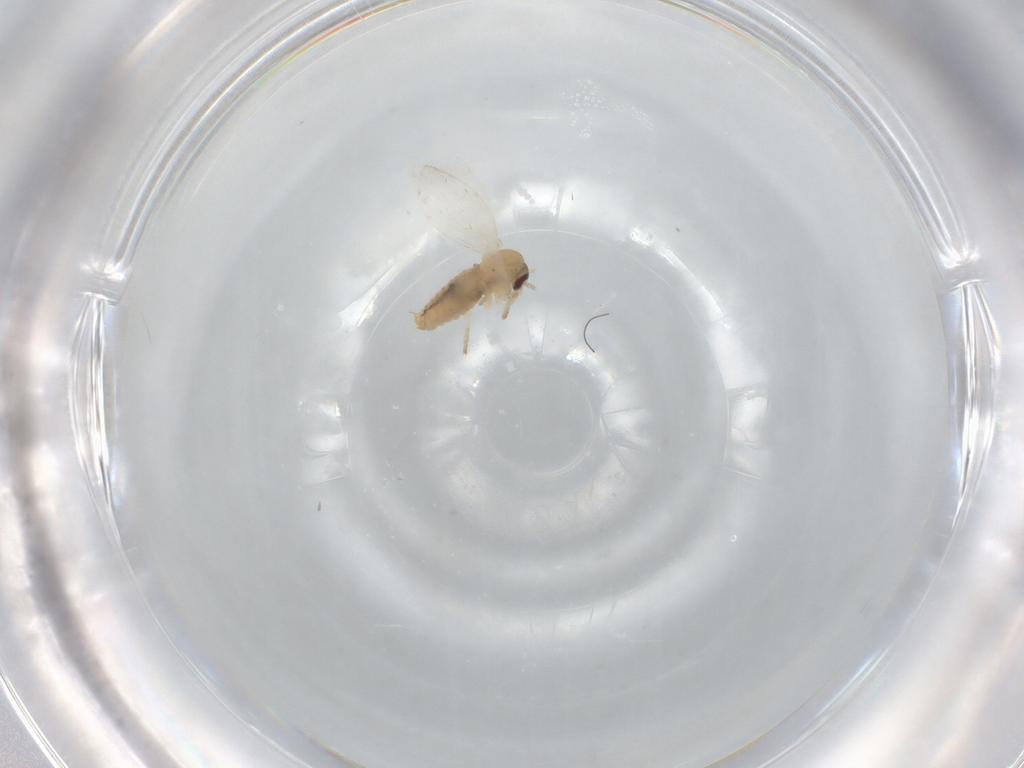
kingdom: Animalia
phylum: Arthropoda
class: Insecta
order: Diptera
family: Psychodidae
